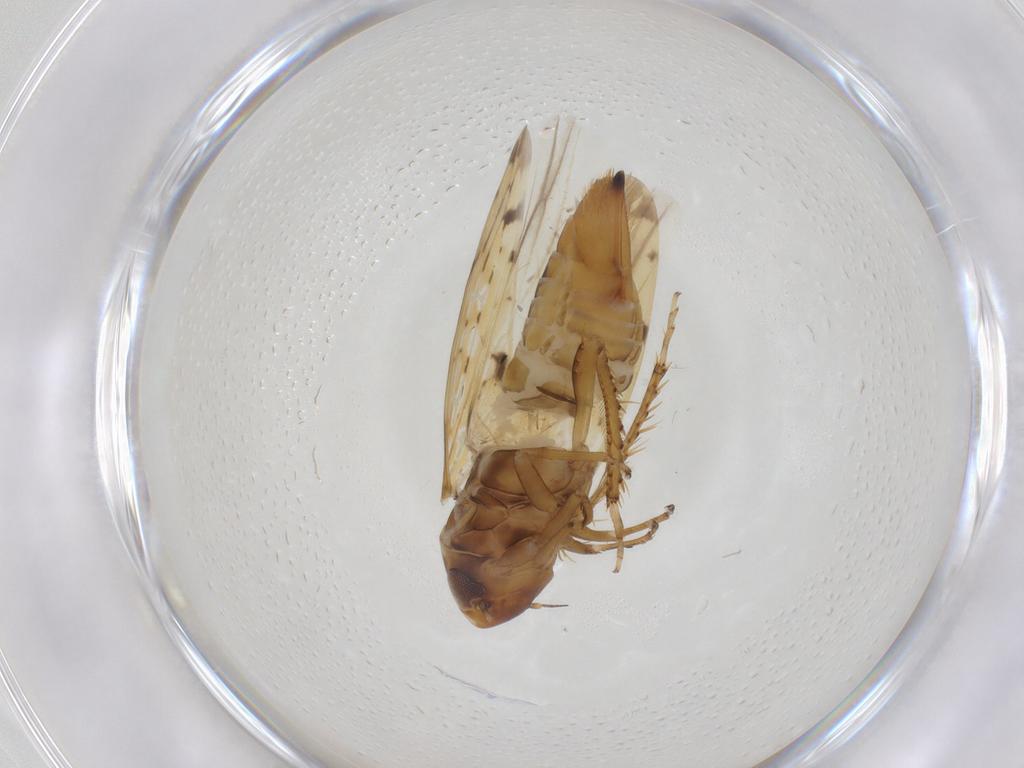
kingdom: Animalia
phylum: Arthropoda
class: Insecta
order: Hemiptera
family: Cicadellidae
